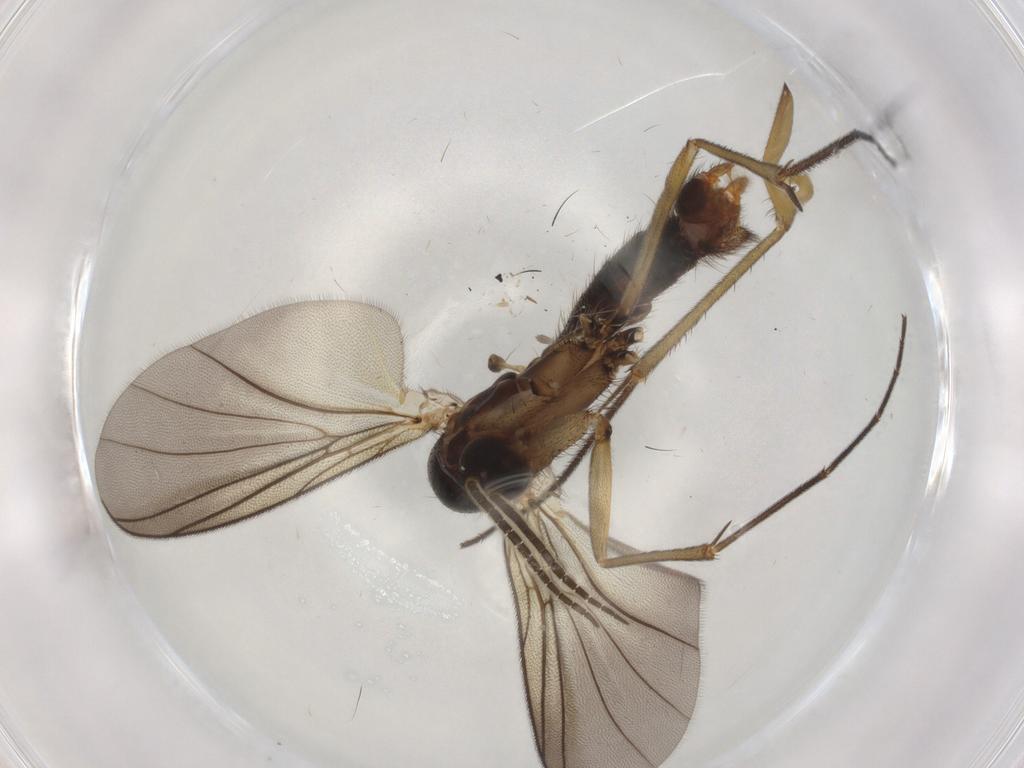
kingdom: Animalia
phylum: Arthropoda
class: Insecta
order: Diptera
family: Mycetophilidae
